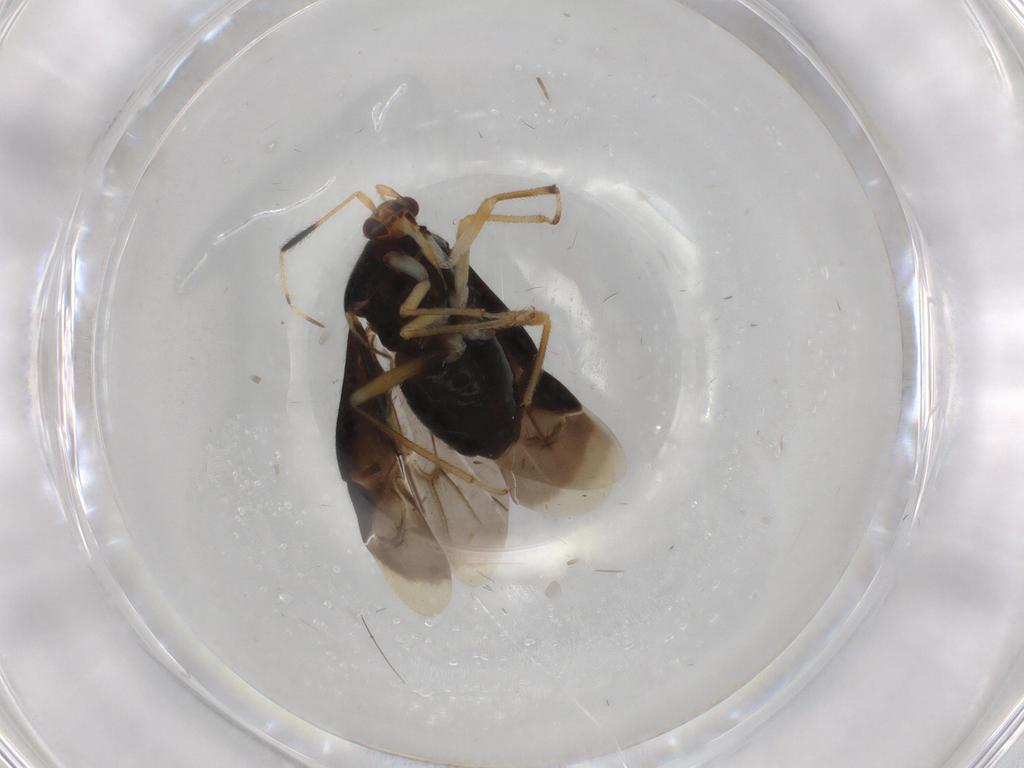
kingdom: Animalia
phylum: Arthropoda
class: Insecta
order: Hemiptera
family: Miridae
